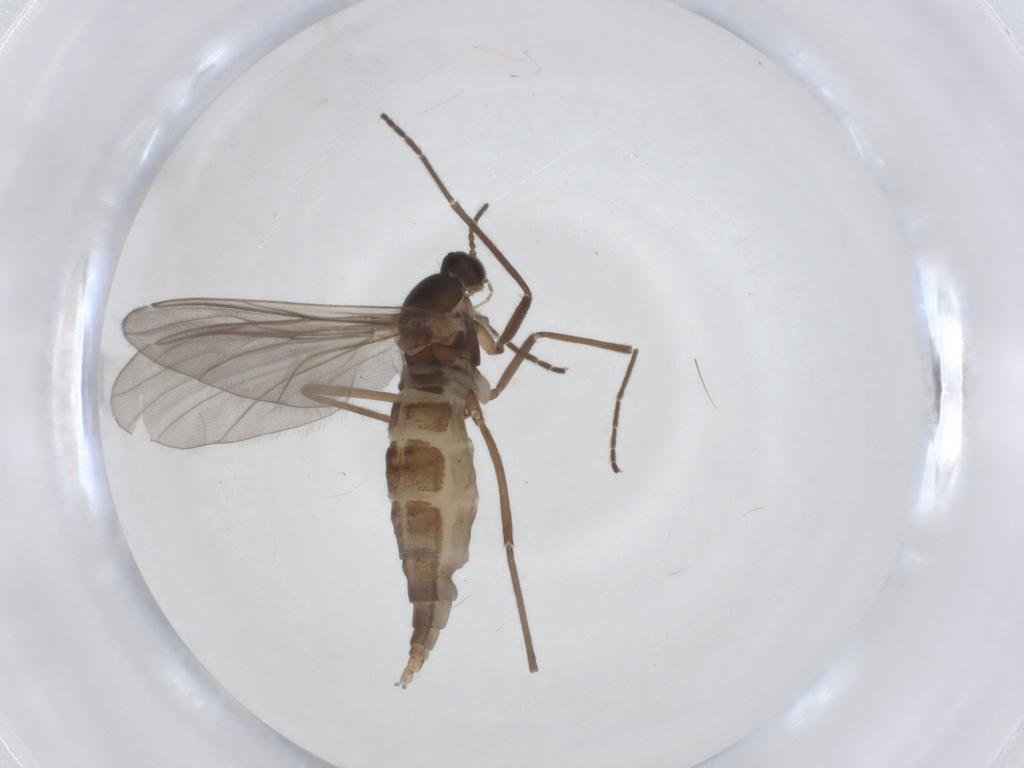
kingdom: Animalia
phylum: Arthropoda
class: Insecta
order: Diptera
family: Cecidomyiidae
